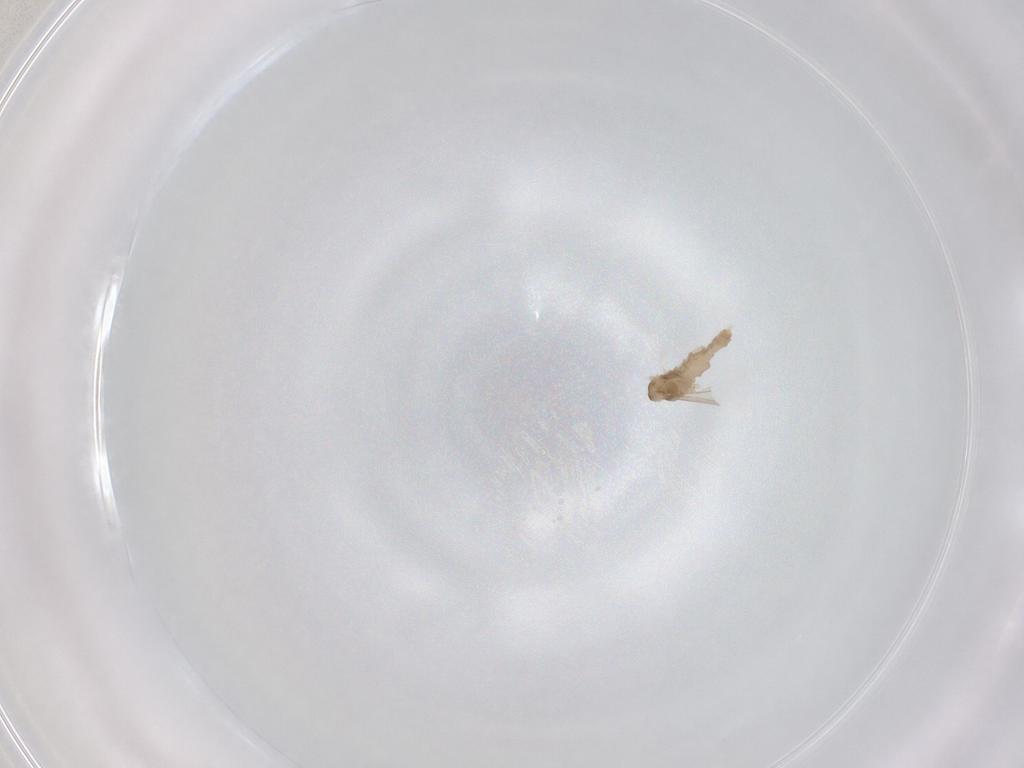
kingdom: Animalia
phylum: Arthropoda
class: Insecta
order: Diptera
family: Cecidomyiidae
